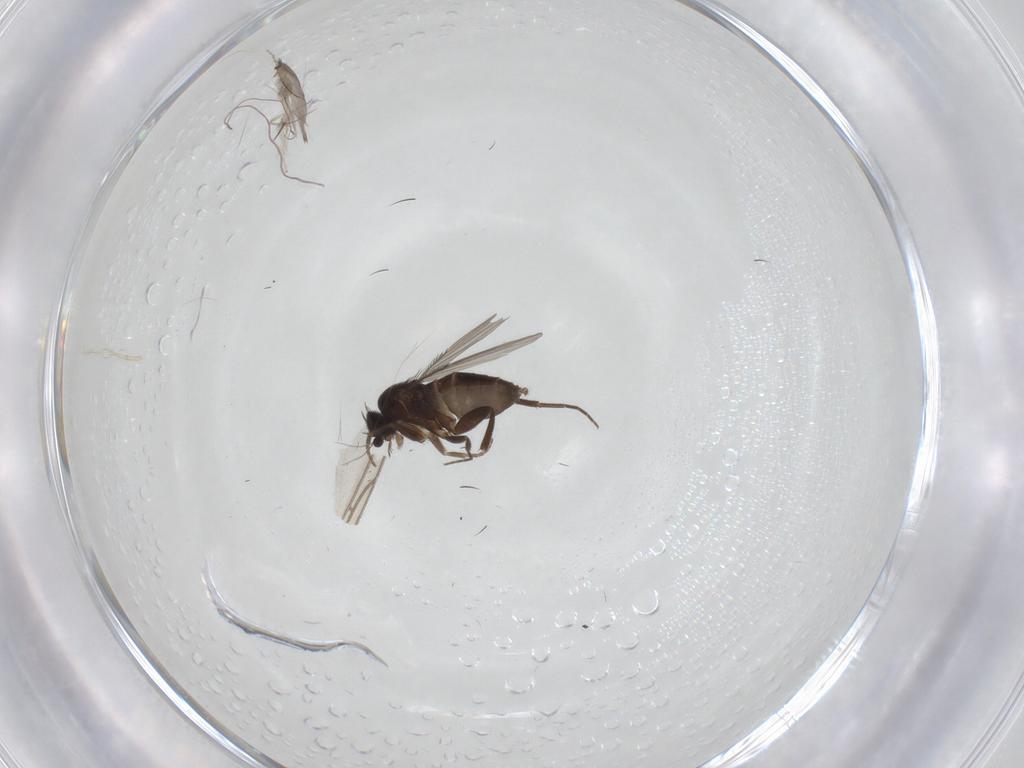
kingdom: Animalia
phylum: Arthropoda
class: Insecta
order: Diptera
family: Phoridae
